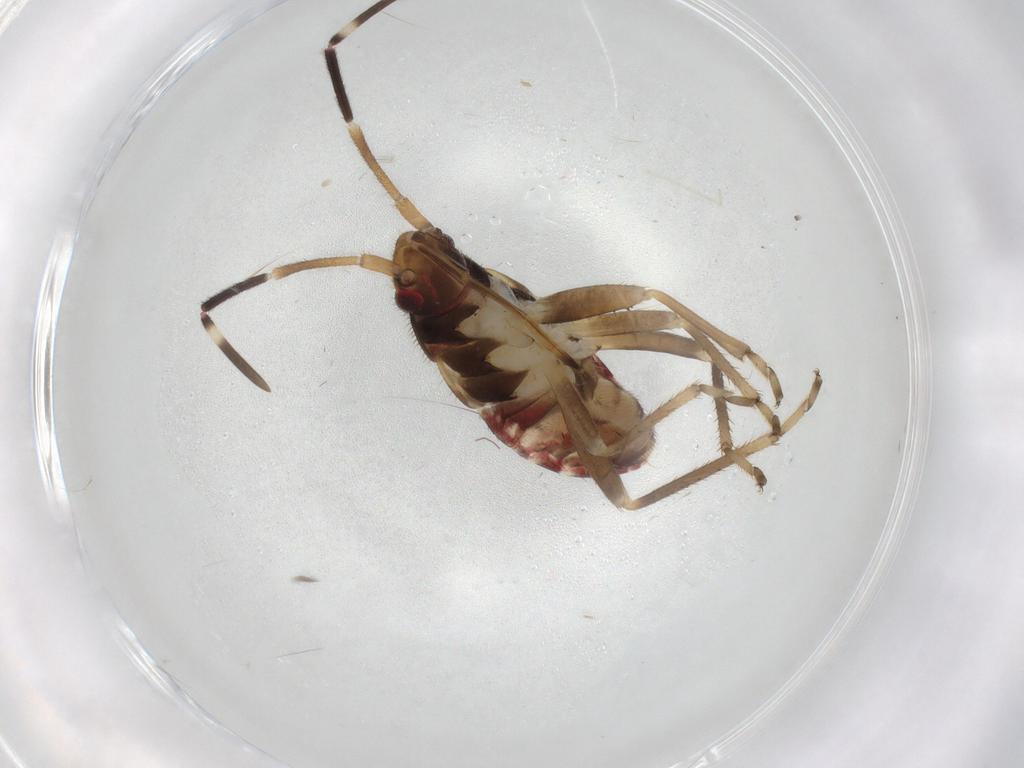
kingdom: Animalia
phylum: Arthropoda
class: Insecta
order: Hemiptera
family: Rhyparochromidae
